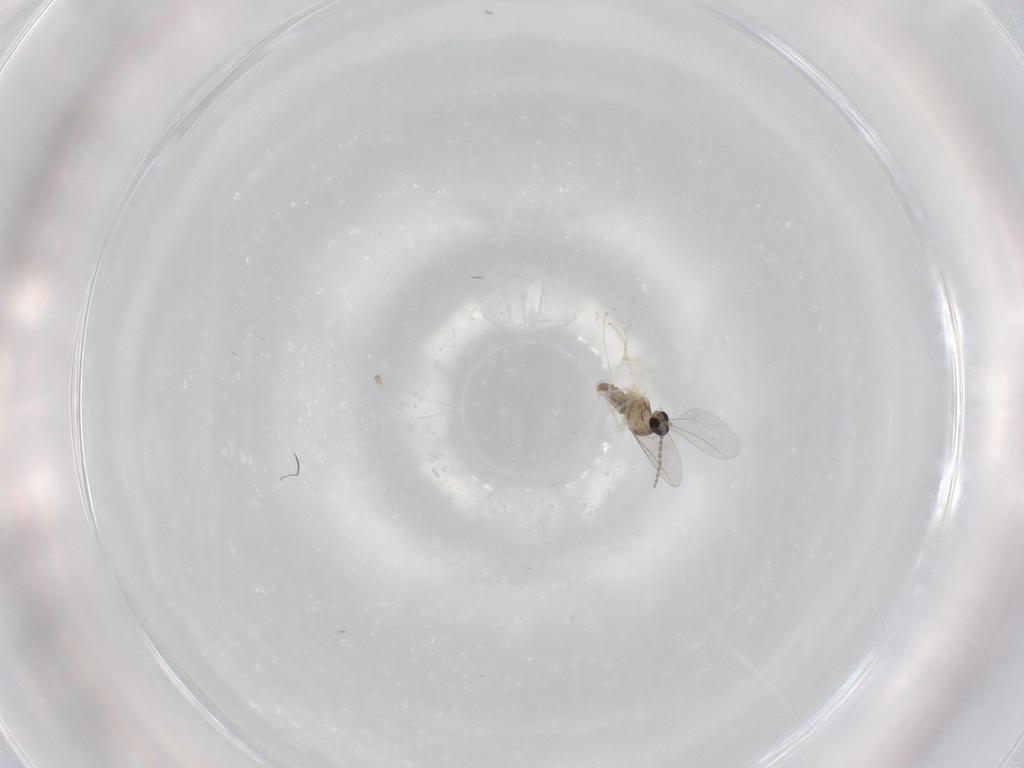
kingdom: Animalia
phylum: Arthropoda
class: Insecta
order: Diptera
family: Cecidomyiidae
